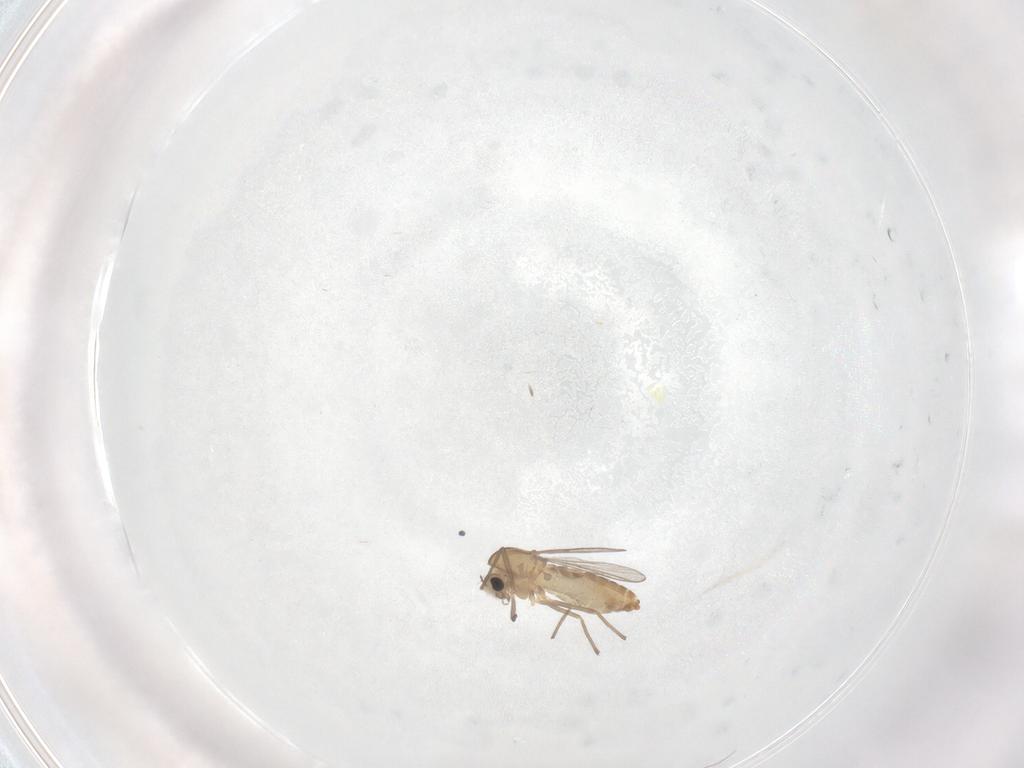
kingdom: Animalia
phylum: Arthropoda
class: Insecta
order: Diptera
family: Chironomidae
